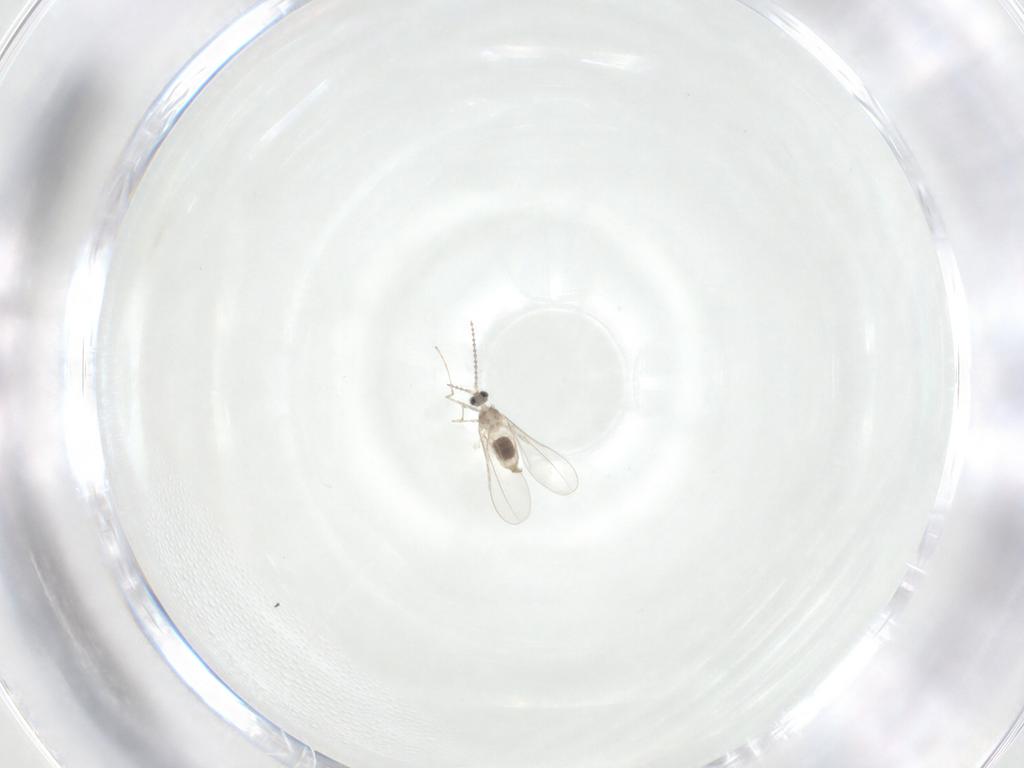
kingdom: Animalia
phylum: Arthropoda
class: Insecta
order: Diptera
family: Cecidomyiidae
